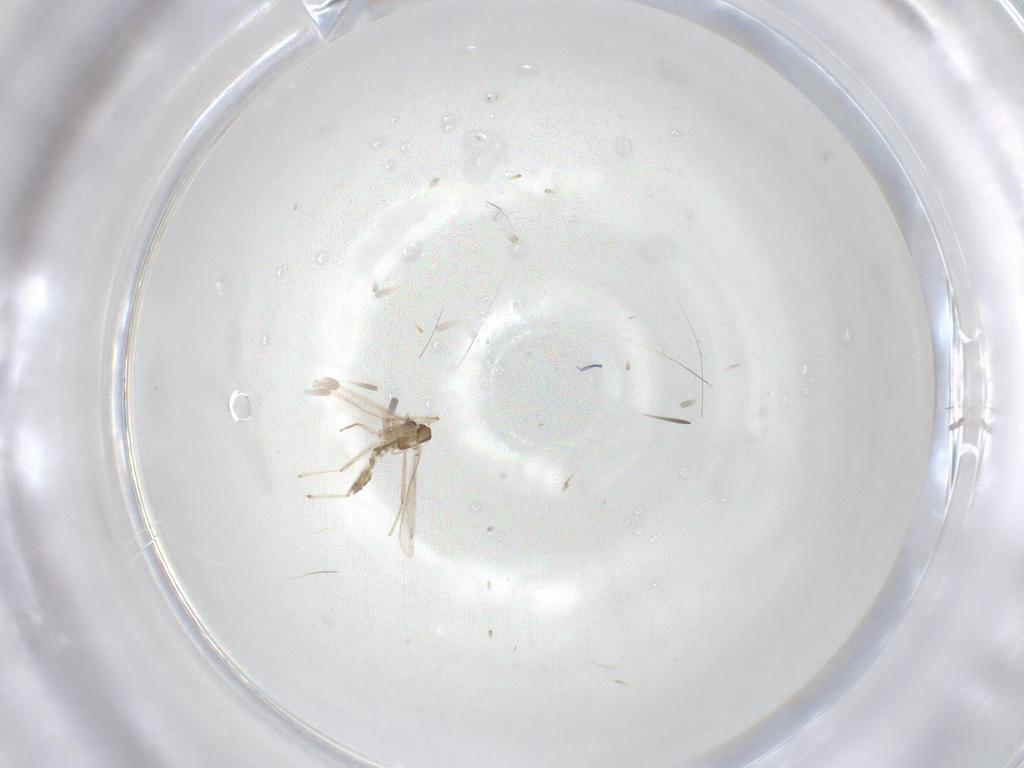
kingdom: Animalia
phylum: Arthropoda
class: Insecta
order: Diptera
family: Chironomidae
